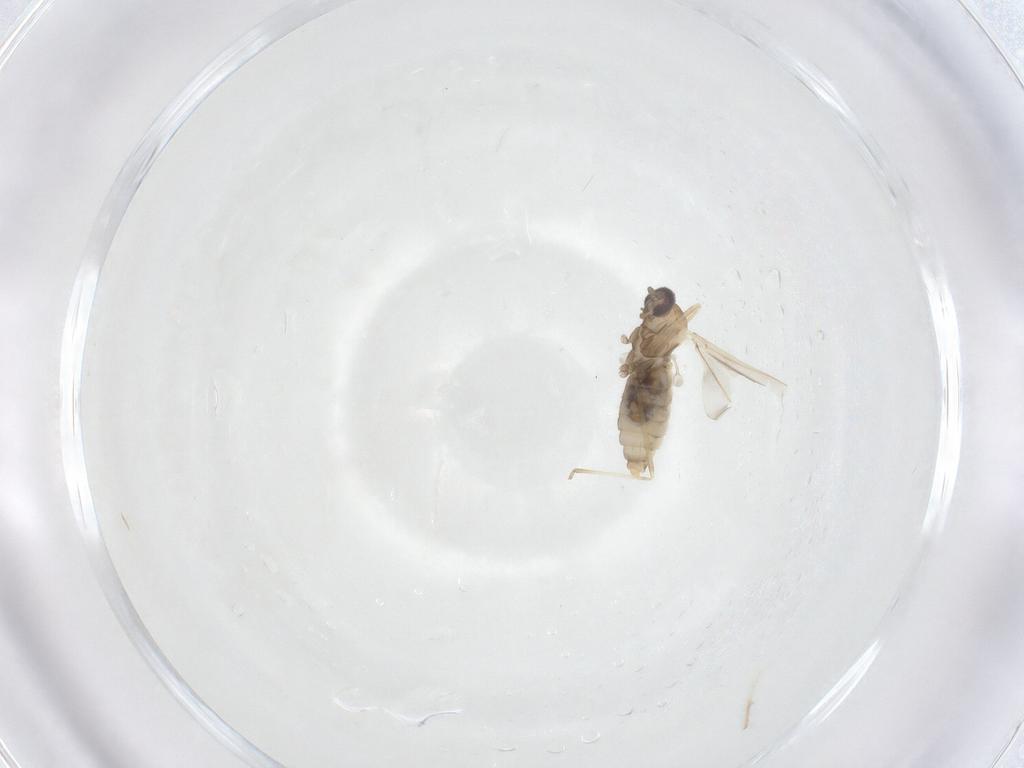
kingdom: Animalia
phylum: Arthropoda
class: Insecta
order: Diptera
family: Cecidomyiidae
